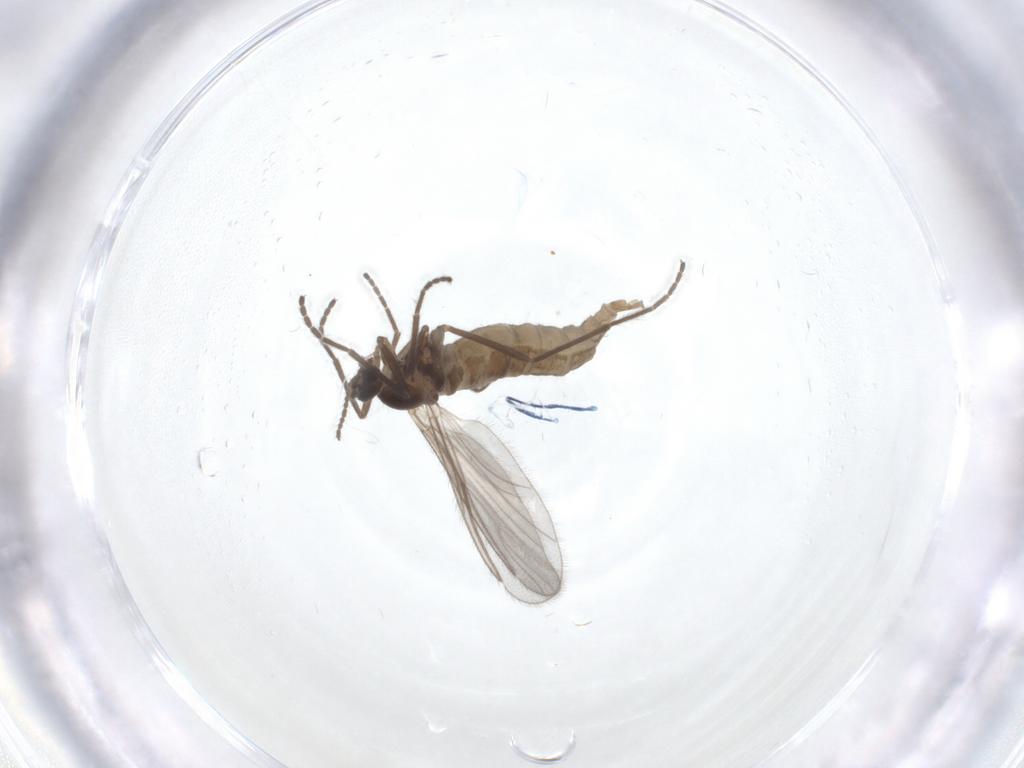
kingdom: Animalia
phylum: Arthropoda
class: Insecta
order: Diptera
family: Cecidomyiidae
